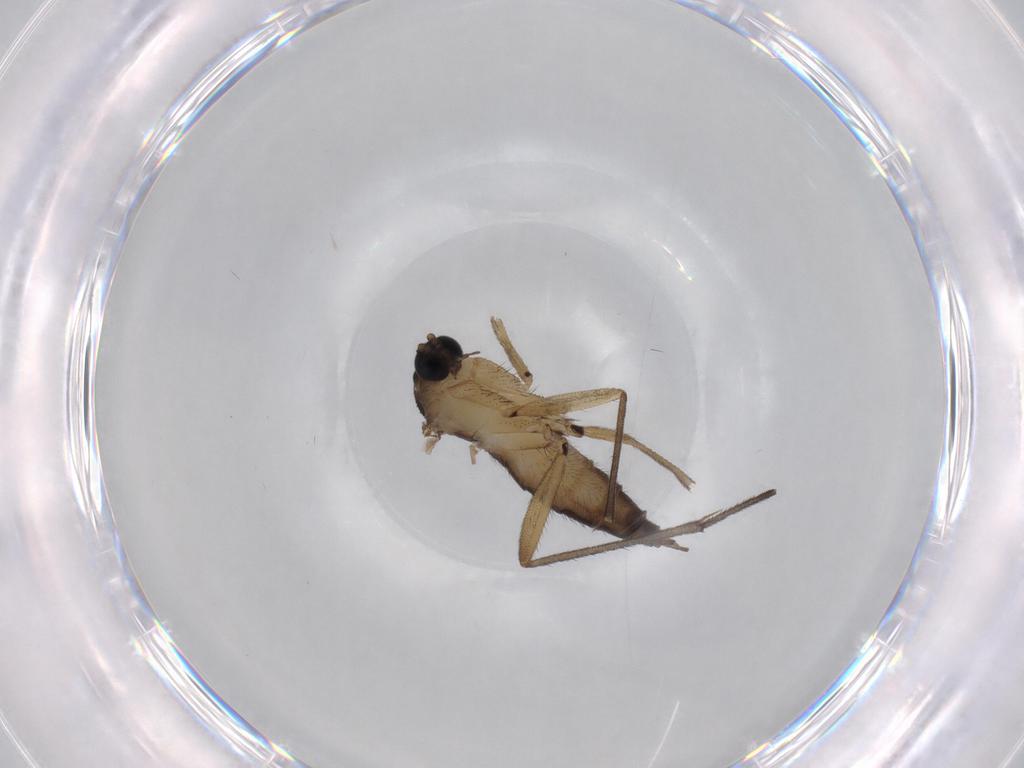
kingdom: Animalia
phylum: Arthropoda
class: Insecta
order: Diptera
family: Sciaridae
